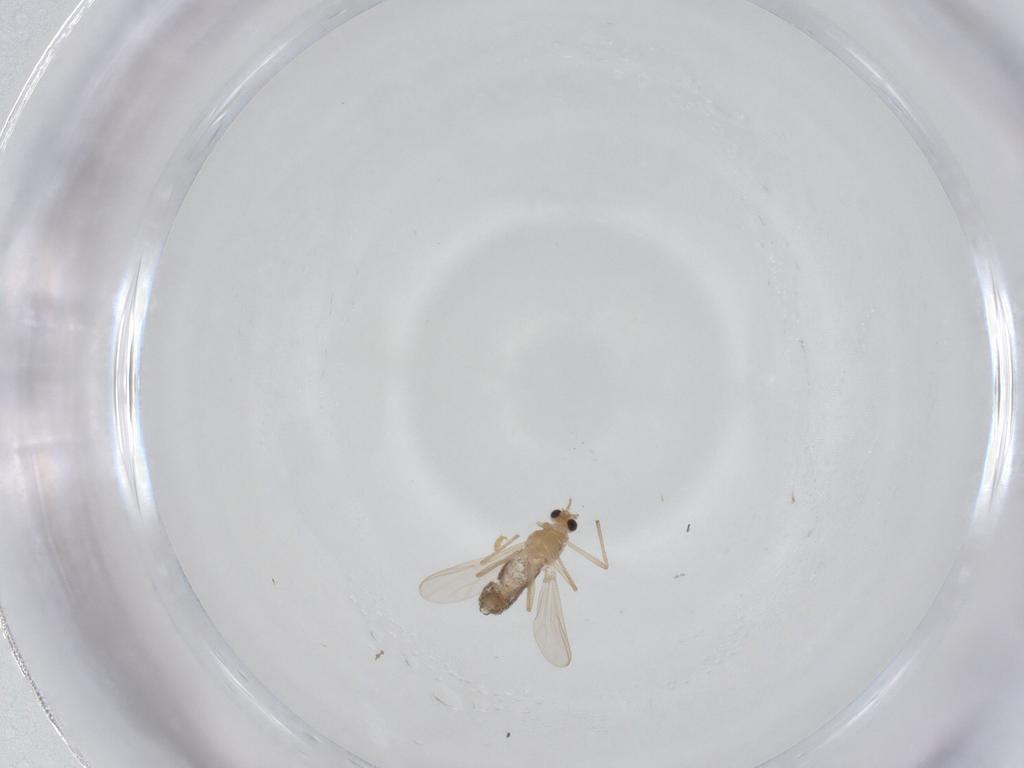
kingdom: Animalia
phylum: Arthropoda
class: Insecta
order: Diptera
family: Chironomidae
